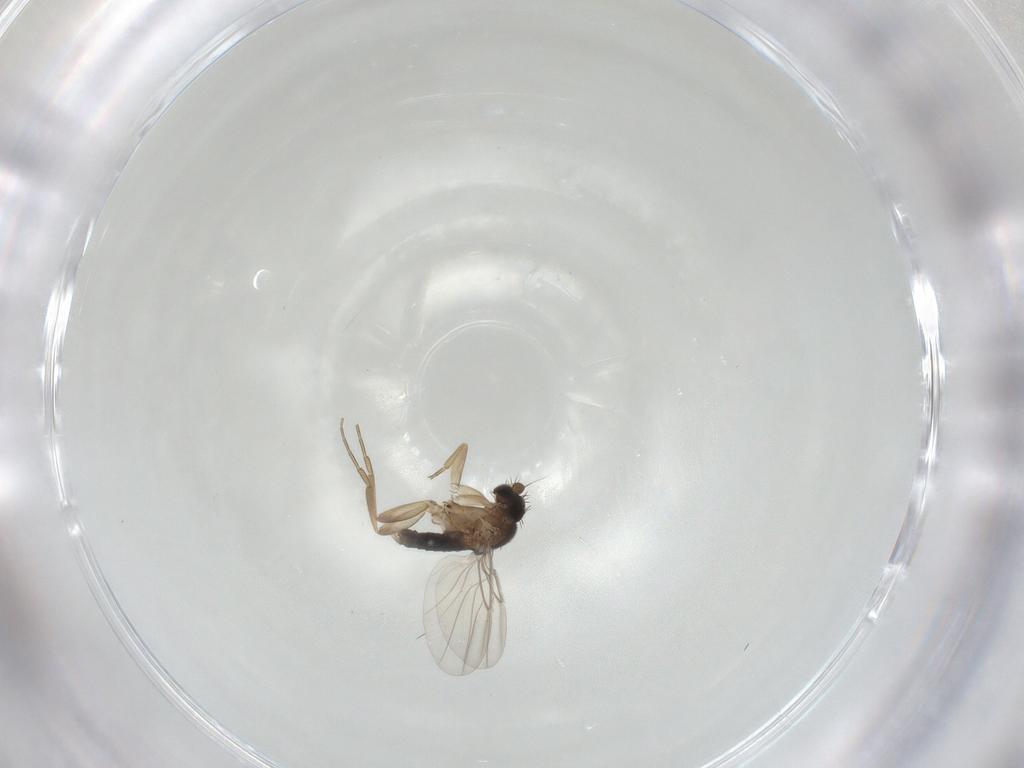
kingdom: Animalia
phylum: Arthropoda
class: Insecta
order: Diptera
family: Phoridae
